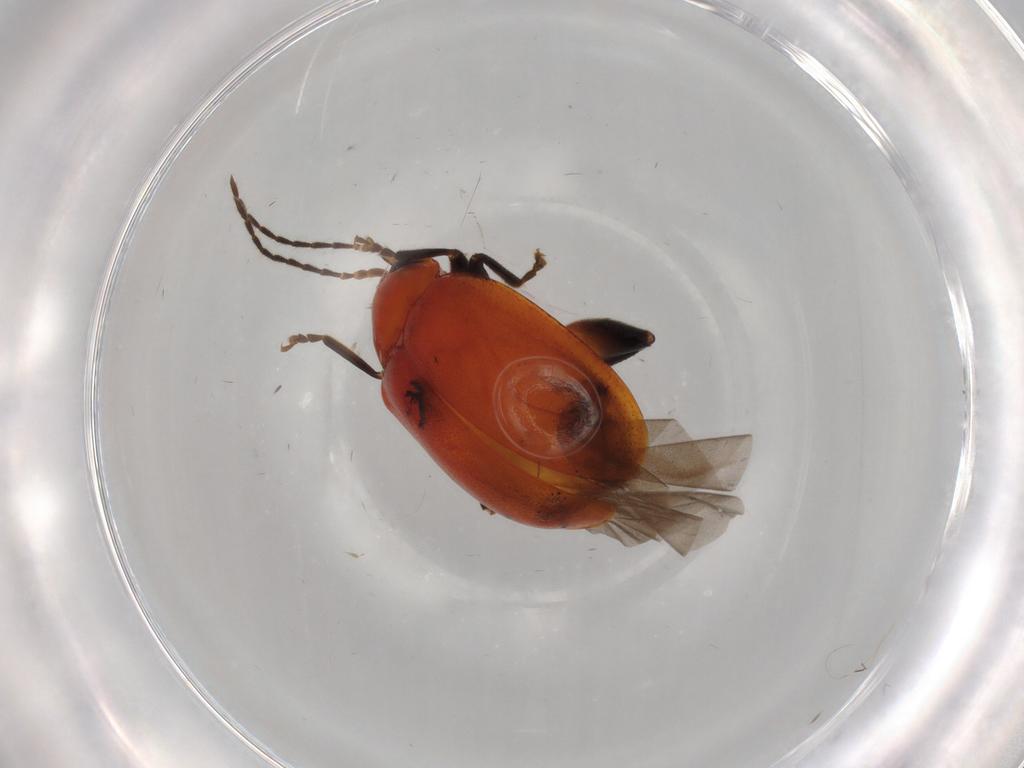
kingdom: Animalia
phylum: Arthropoda
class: Insecta
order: Coleoptera
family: Chrysomelidae
